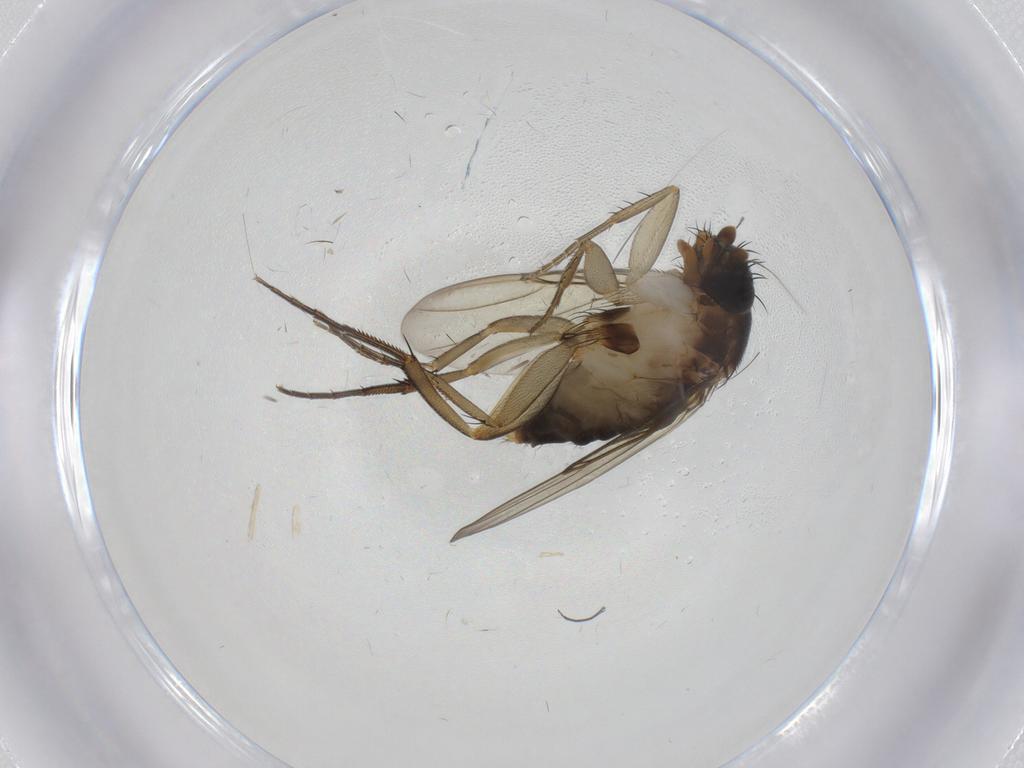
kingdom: Animalia
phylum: Arthropoda
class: Insecta
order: Diptera
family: Phoridae
